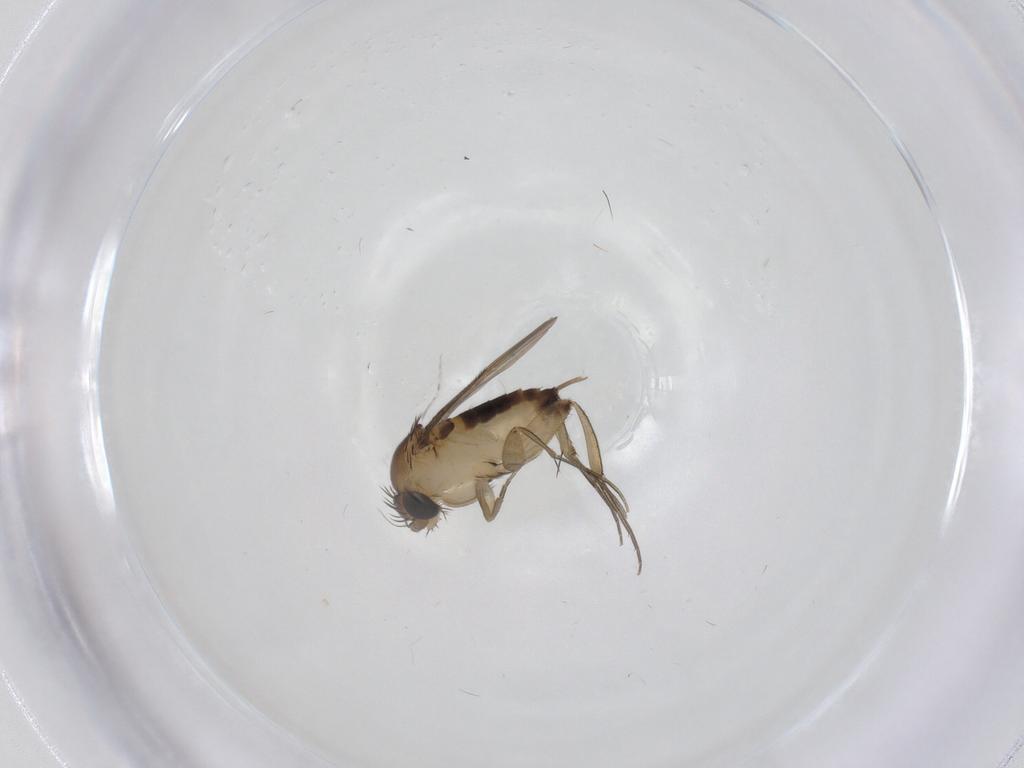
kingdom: Animalia
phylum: Arthropoda
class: Insecta
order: Diptera
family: Phoridae
